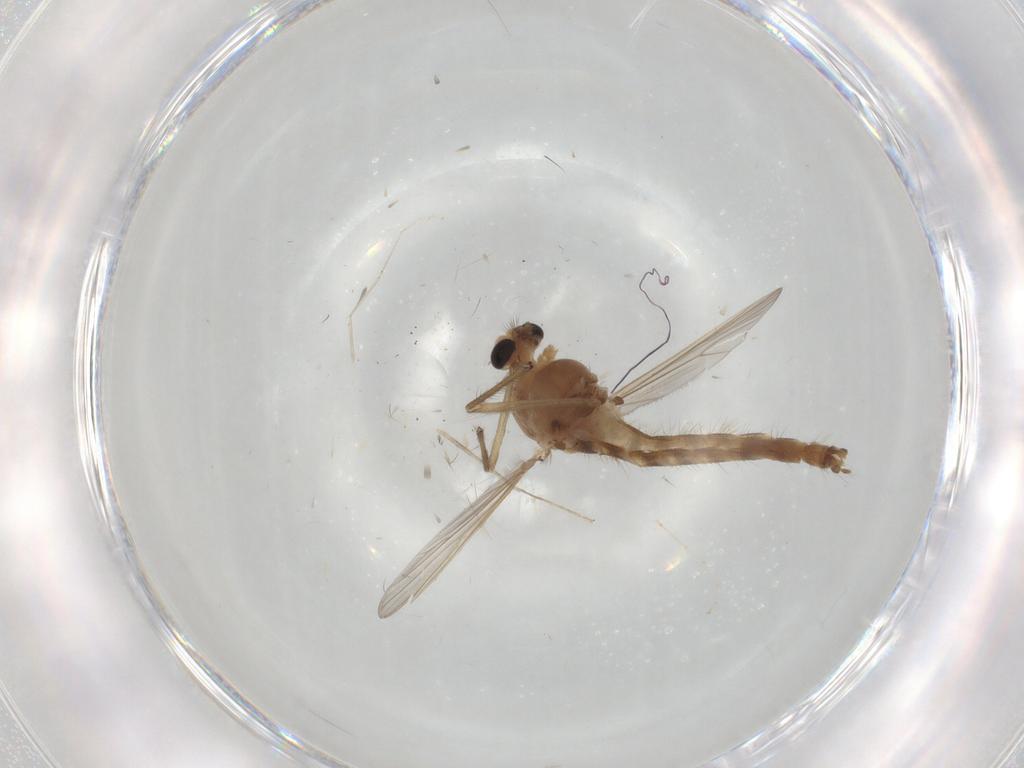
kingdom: Animalia
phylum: Arthropoda
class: Insecta
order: Diptera
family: Chironomidae
